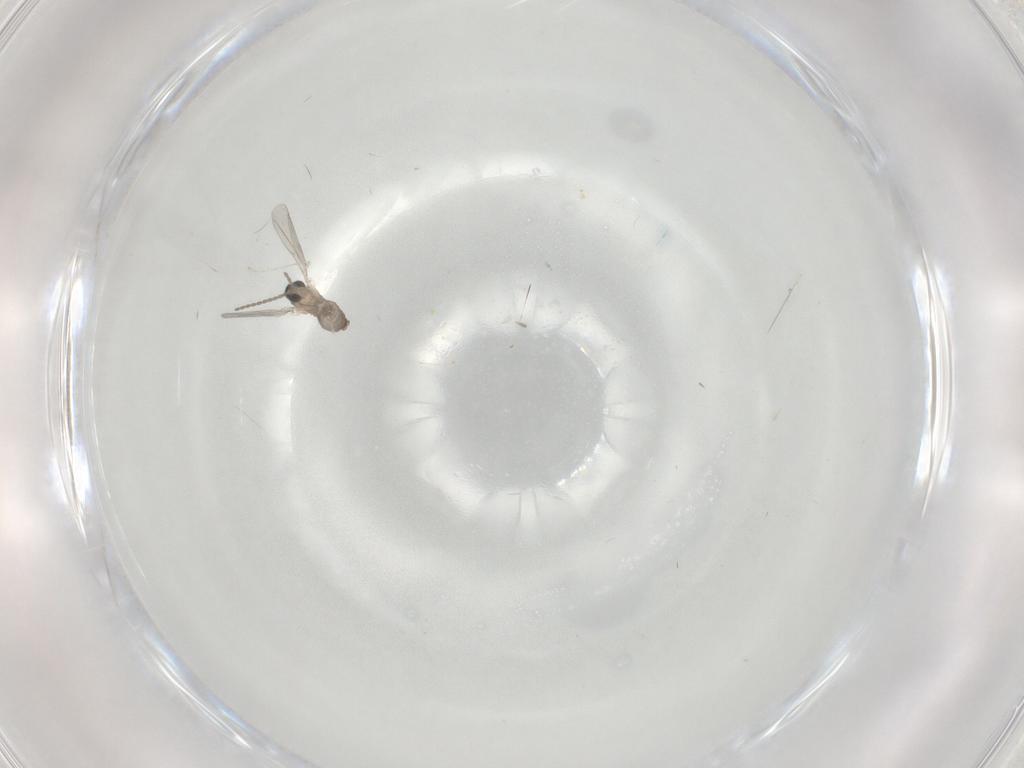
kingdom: Animalia
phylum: Arthropoda
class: Insecta
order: Diptera
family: Cecidomyiidae
